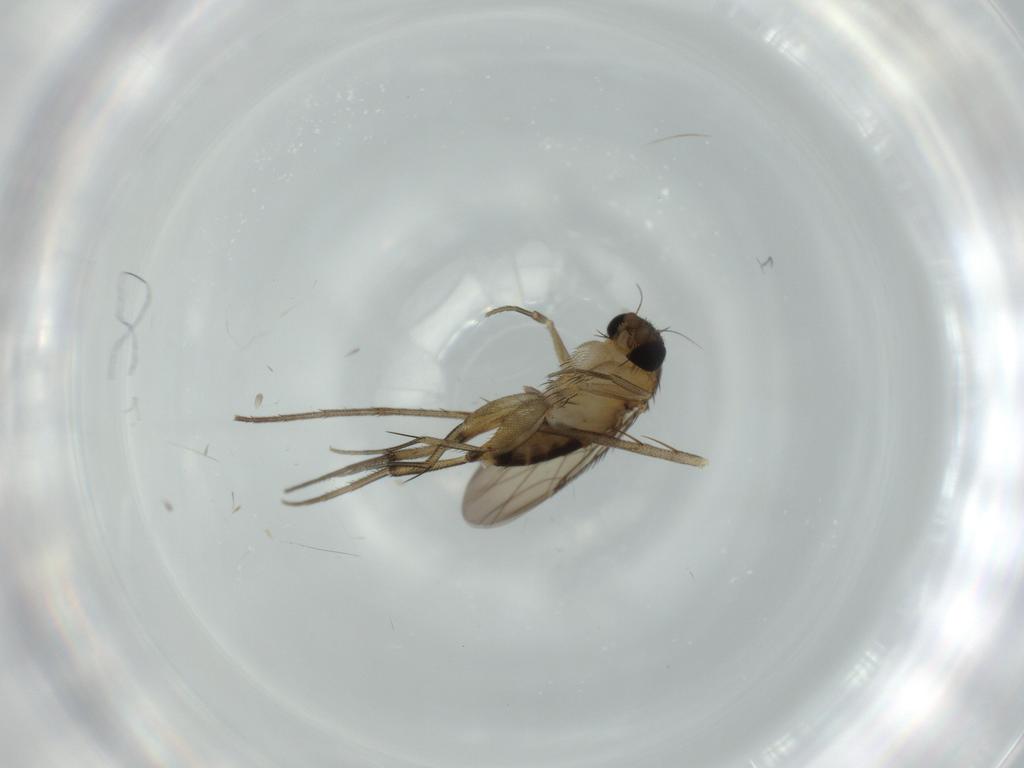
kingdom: Animalia
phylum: Arthropoda
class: Insecta
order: Diptera
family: Phoridae
